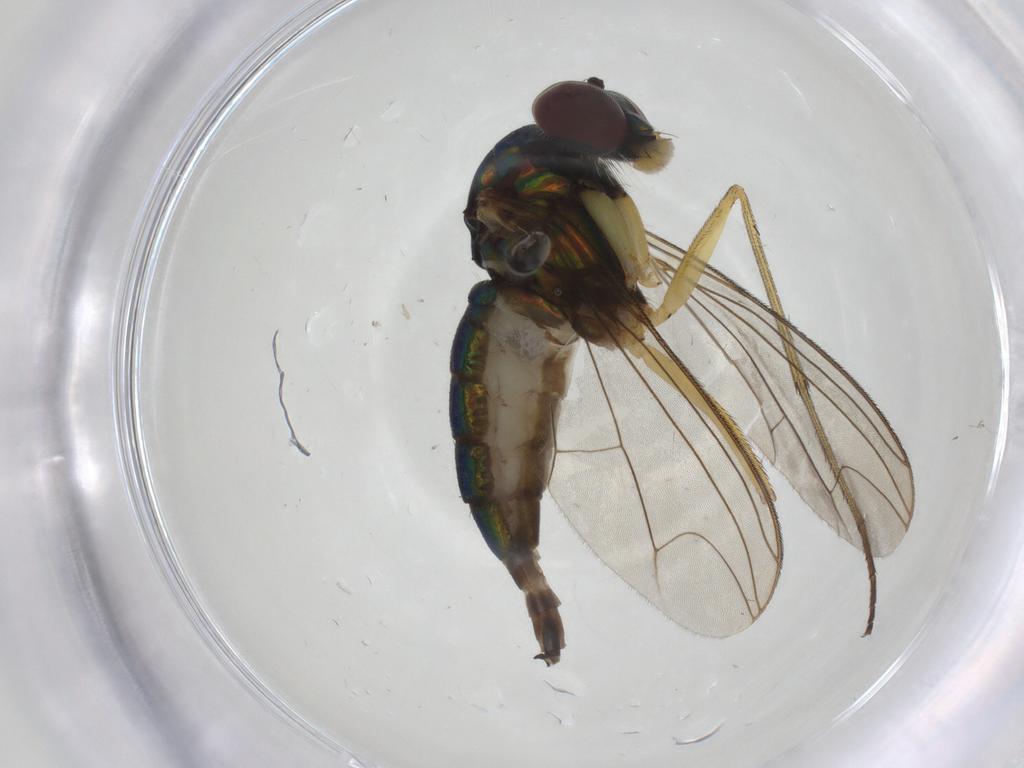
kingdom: Animalia
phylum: Arthropoda
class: Insecta
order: Diptera
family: Dolichopodidae
